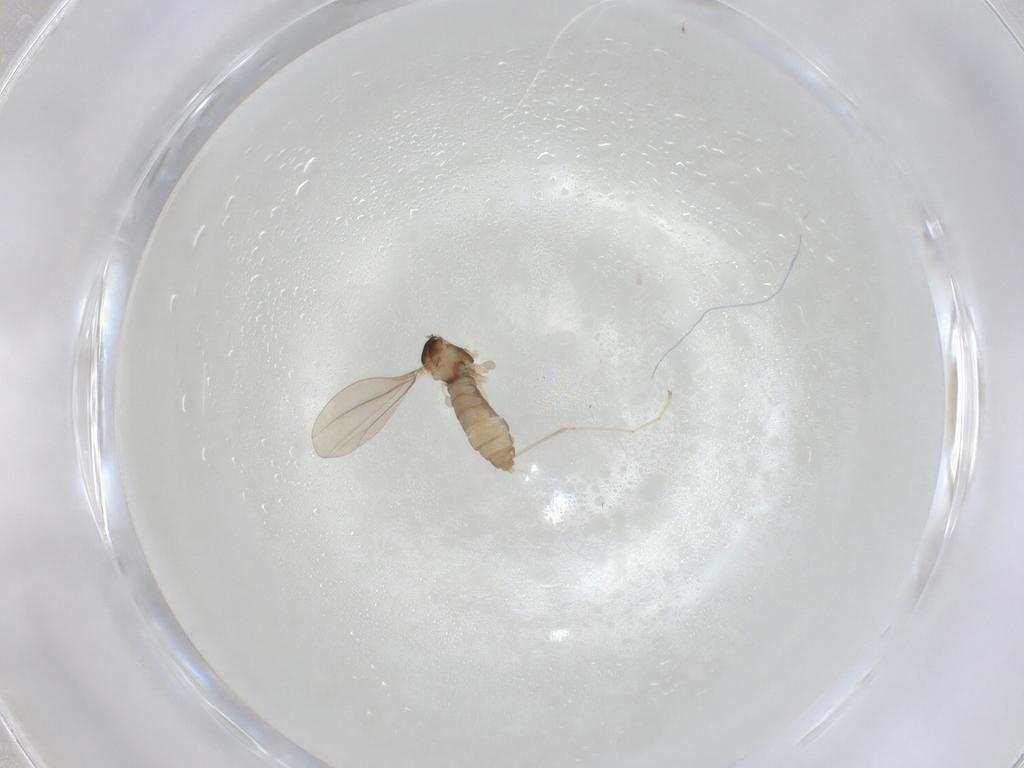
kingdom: Animalia
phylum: Arthropoda
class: Insecta
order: Diptera
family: Cecidomyiidae
